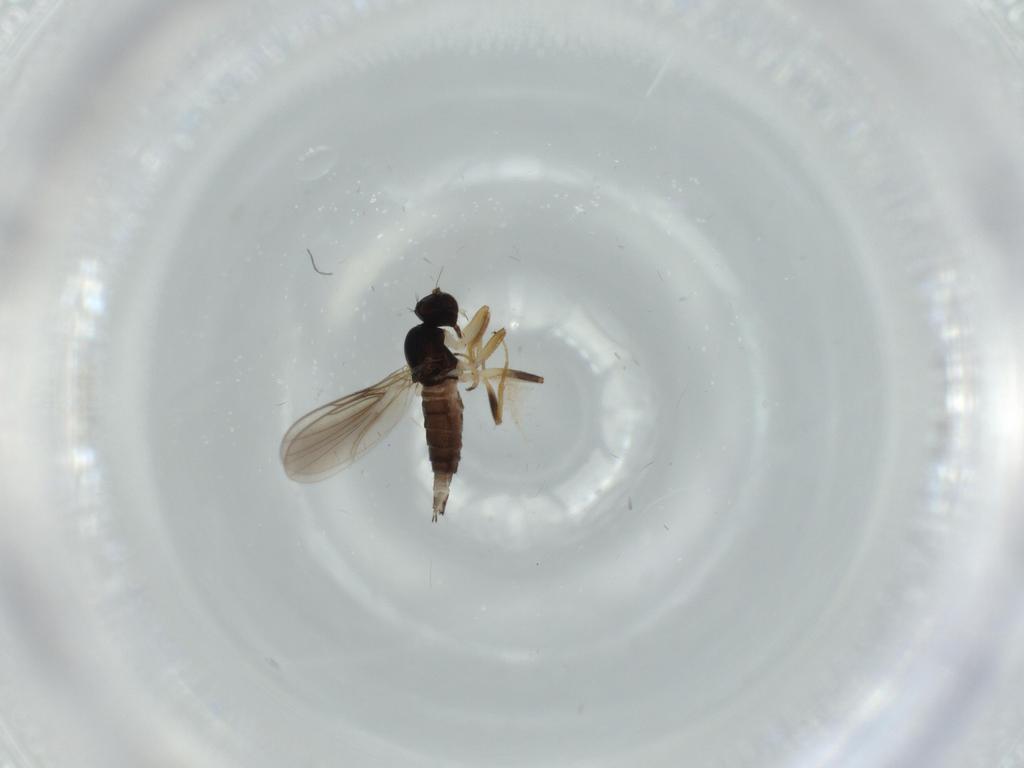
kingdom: Animalia
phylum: Arthropoda
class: Insecta
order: Diptera
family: Hybotidae
